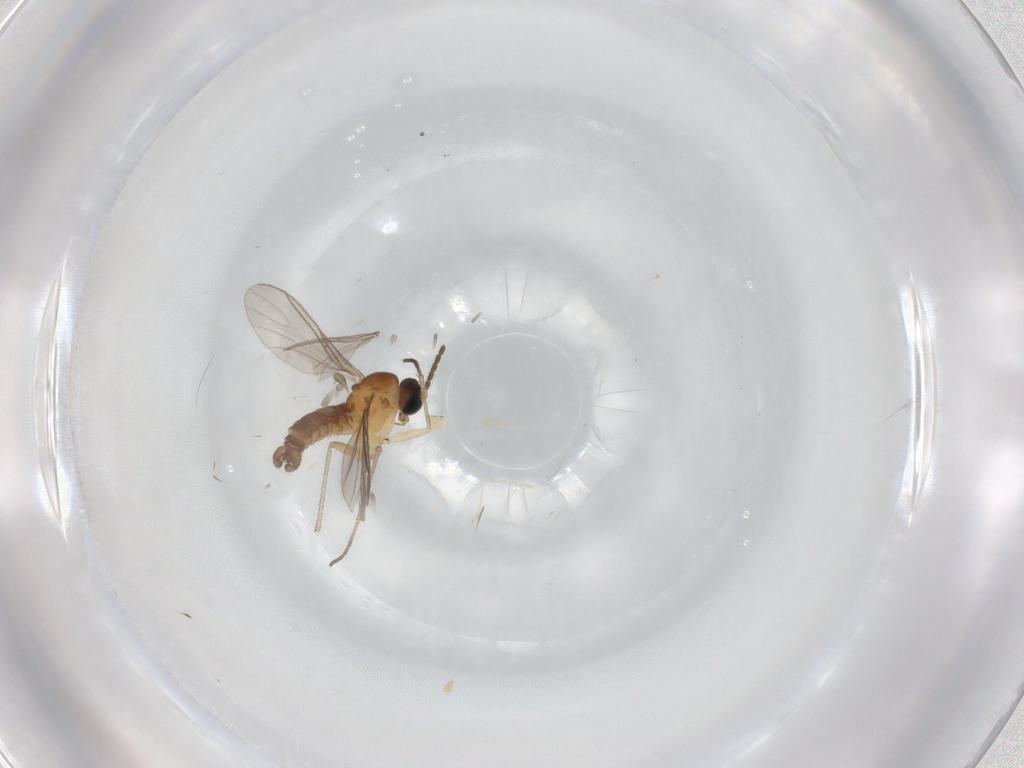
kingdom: Animalia
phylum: Arthropoda
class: Insecta
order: Diptera
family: Sciaridae
